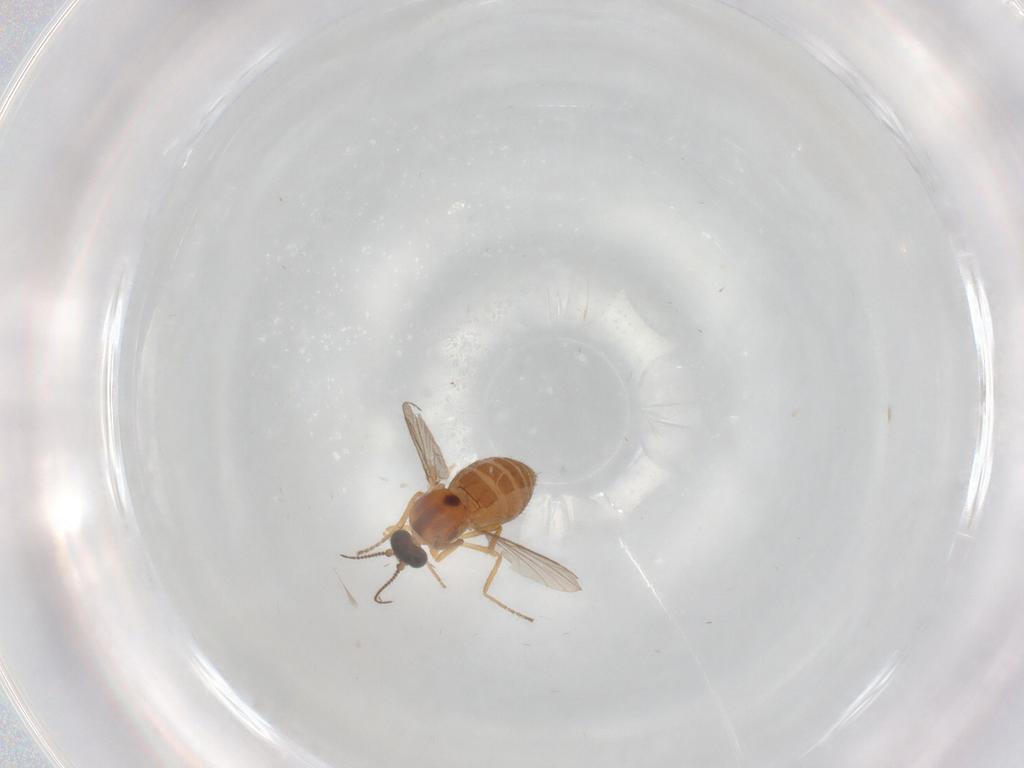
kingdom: Animalia
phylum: Arthropoda
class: Insecta
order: Diptera
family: Ceratopogonidae
